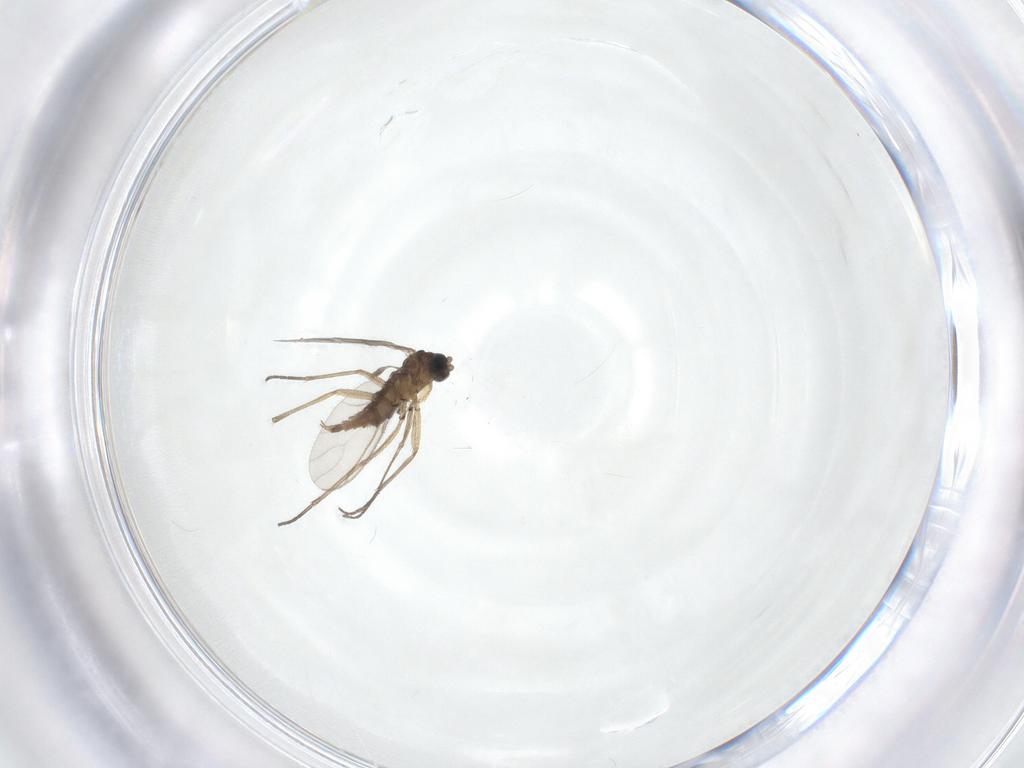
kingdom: Animalia
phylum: Arthropoda
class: Insecta
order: Diptera
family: Sciaridae
